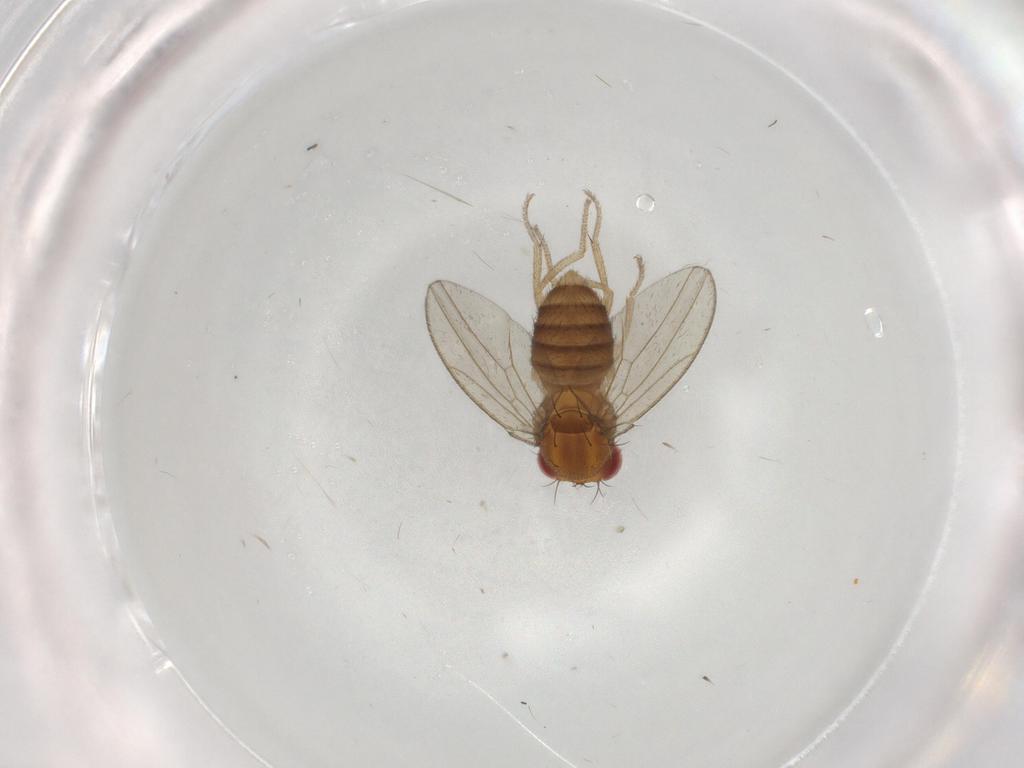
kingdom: Animalia
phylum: Arthropoda
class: Insecta
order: Diptera
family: Drosophilidae
